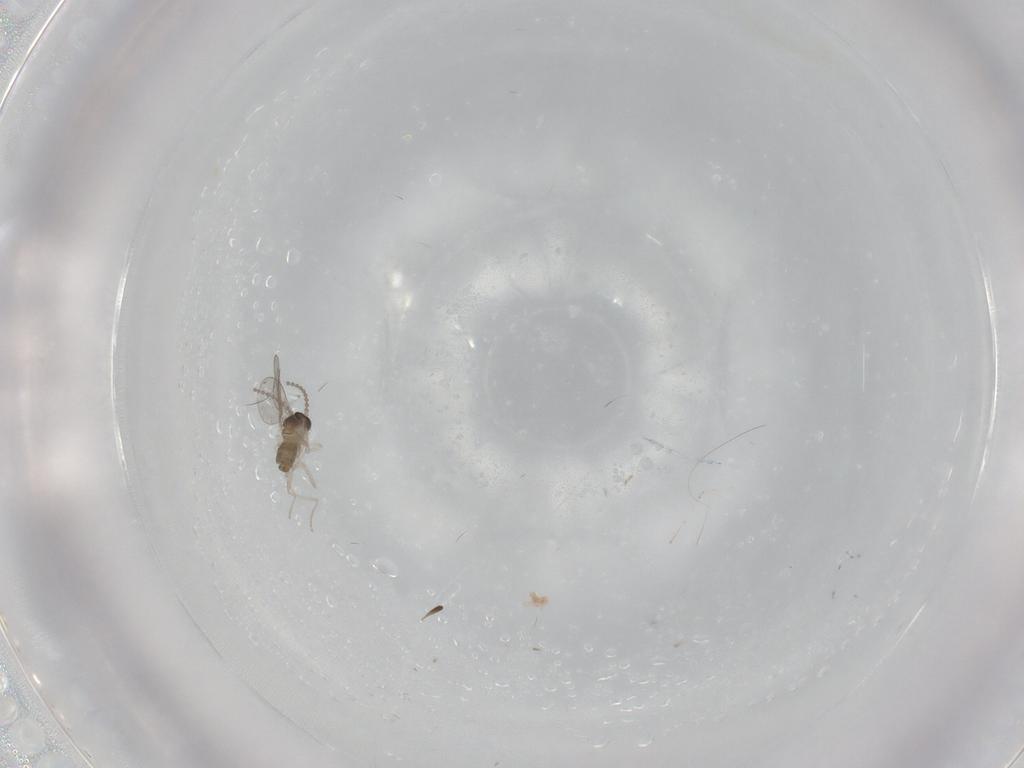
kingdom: Animalia
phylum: Arthropoda
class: Insecta
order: Diptera
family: Cecidomyiidae
